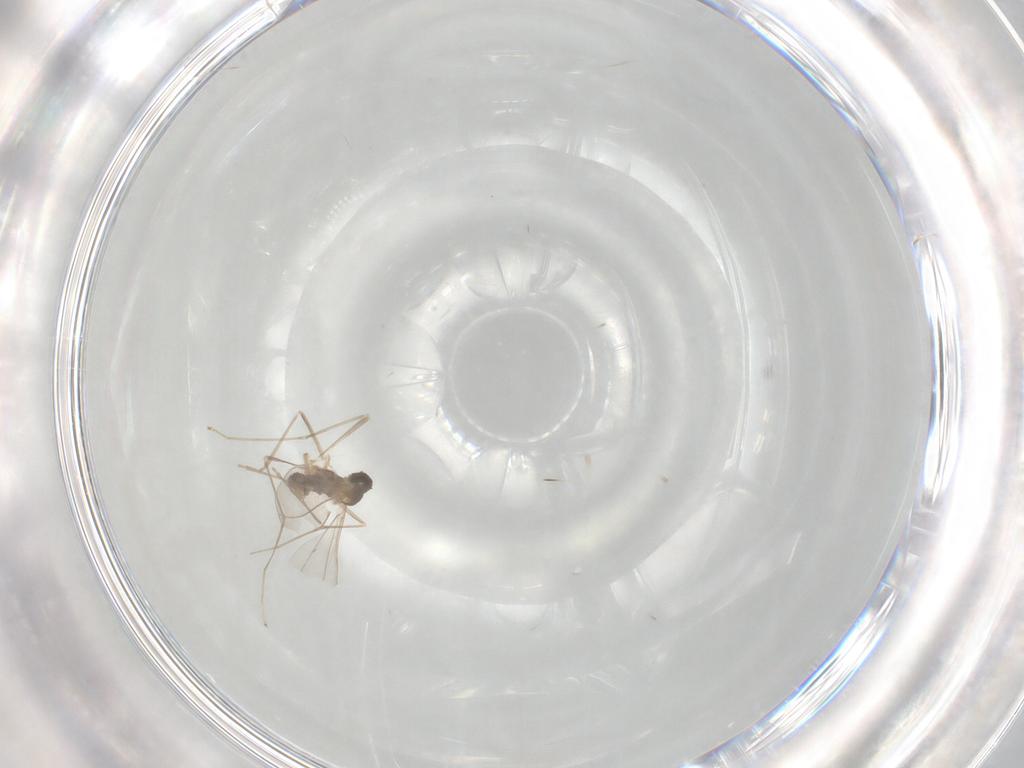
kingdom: Animalia
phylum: Arthropoda
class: Insecta
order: Diptera
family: Cecidomyiidae
